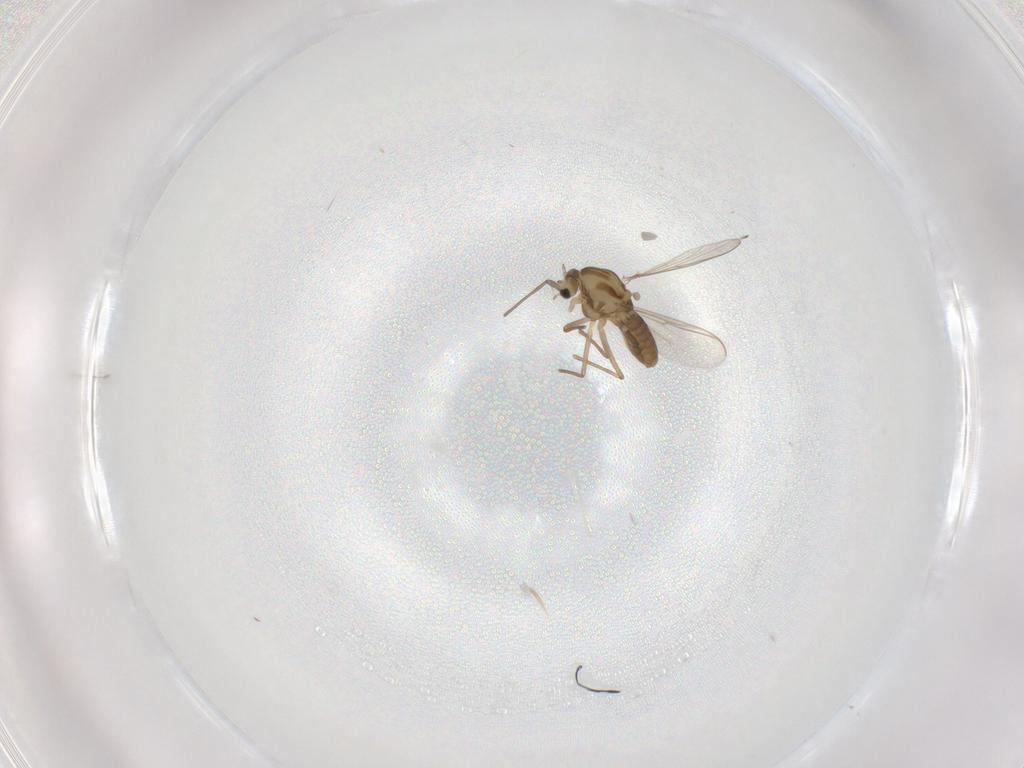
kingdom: Animalia
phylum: Arthropoda
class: Insecta
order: Diptera
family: Chironomidae
